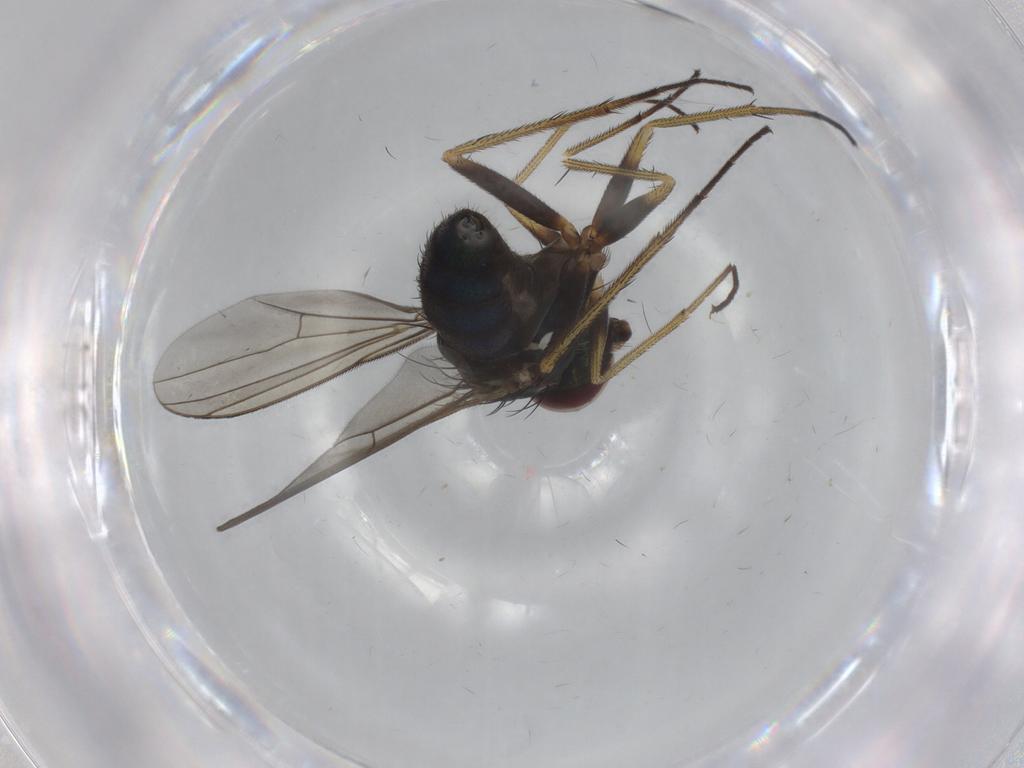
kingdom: Animalia
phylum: Arthropoda
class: Insecta
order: Diptera
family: Dolichopodidae
